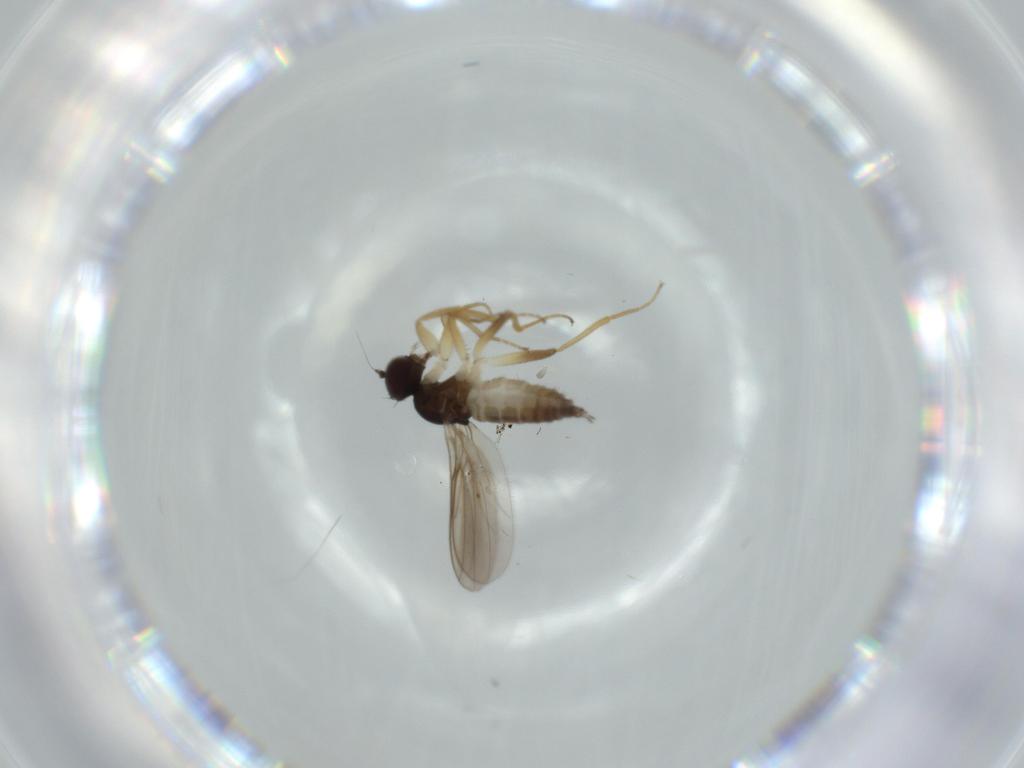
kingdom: Animalia
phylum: Arthropoda
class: Insecta
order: Diptera
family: Hybotidae
